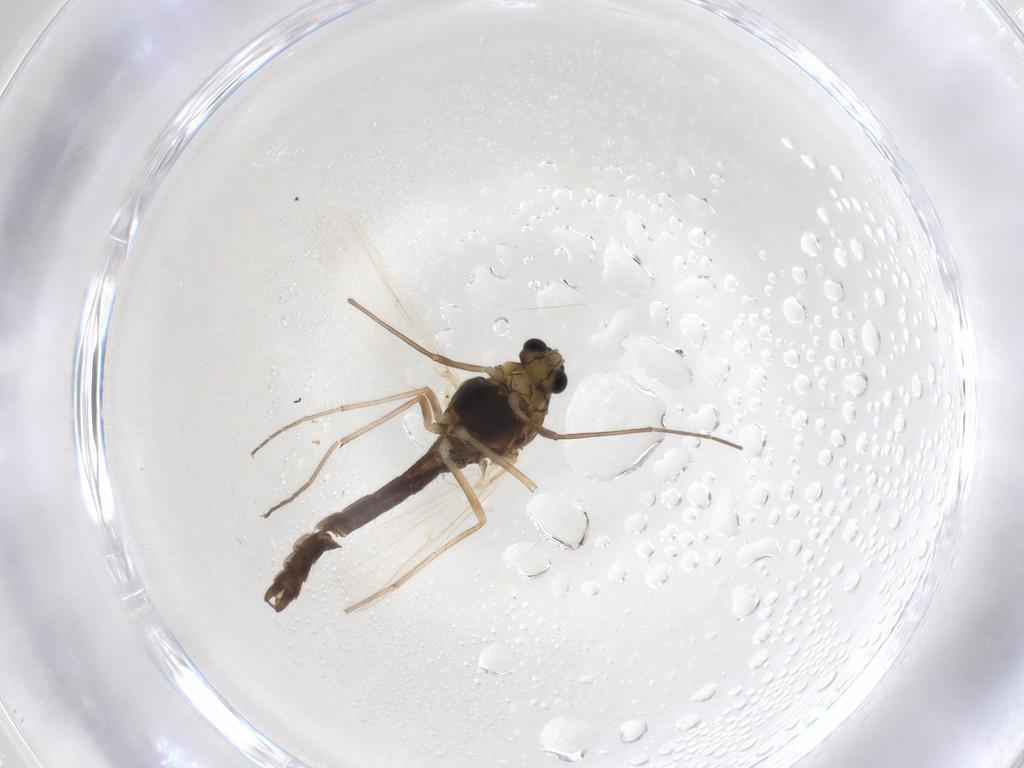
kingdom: Animalia
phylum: Arthropoda
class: Insecta
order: Diptera
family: Chironomidae
